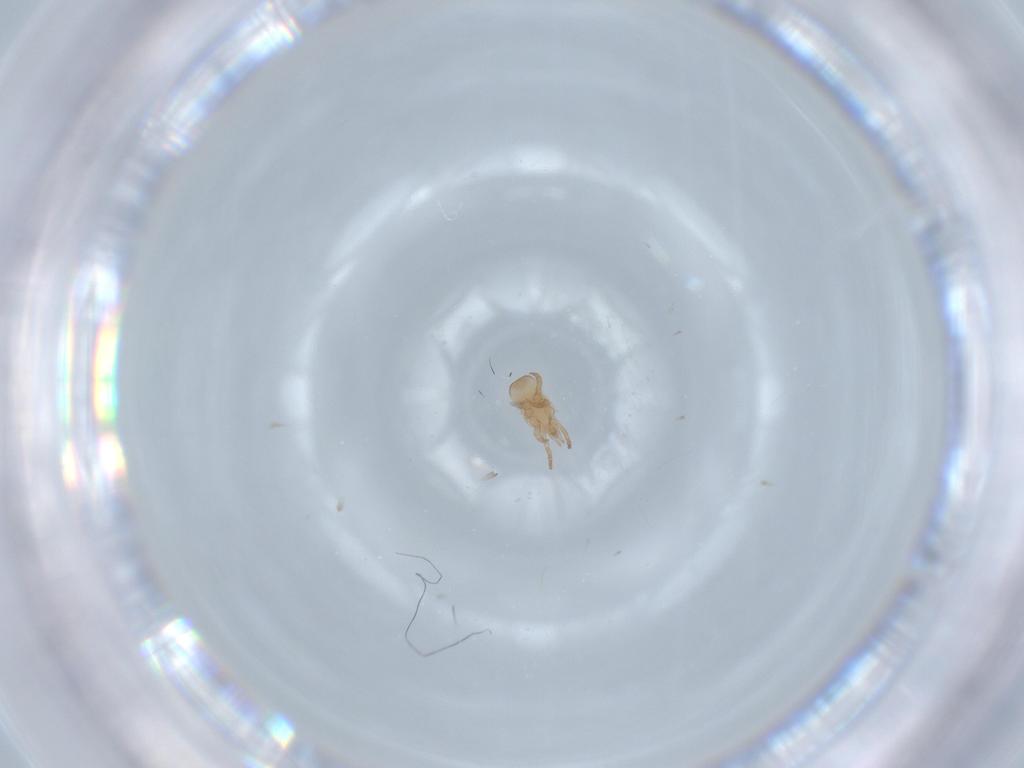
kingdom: Animalia
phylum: Arthropoda
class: Arachnida
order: Mesostigmata
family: Digamasellidae
